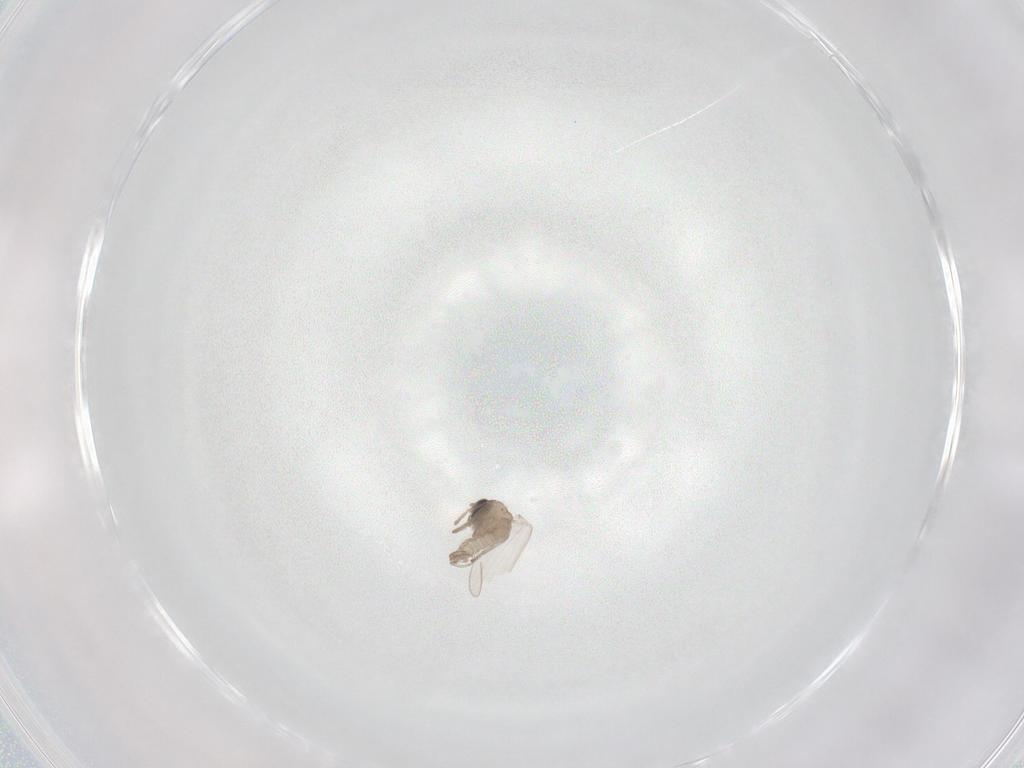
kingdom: Animalia
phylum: Arthropoda
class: Insecta
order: Diptera
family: Psychodidae
